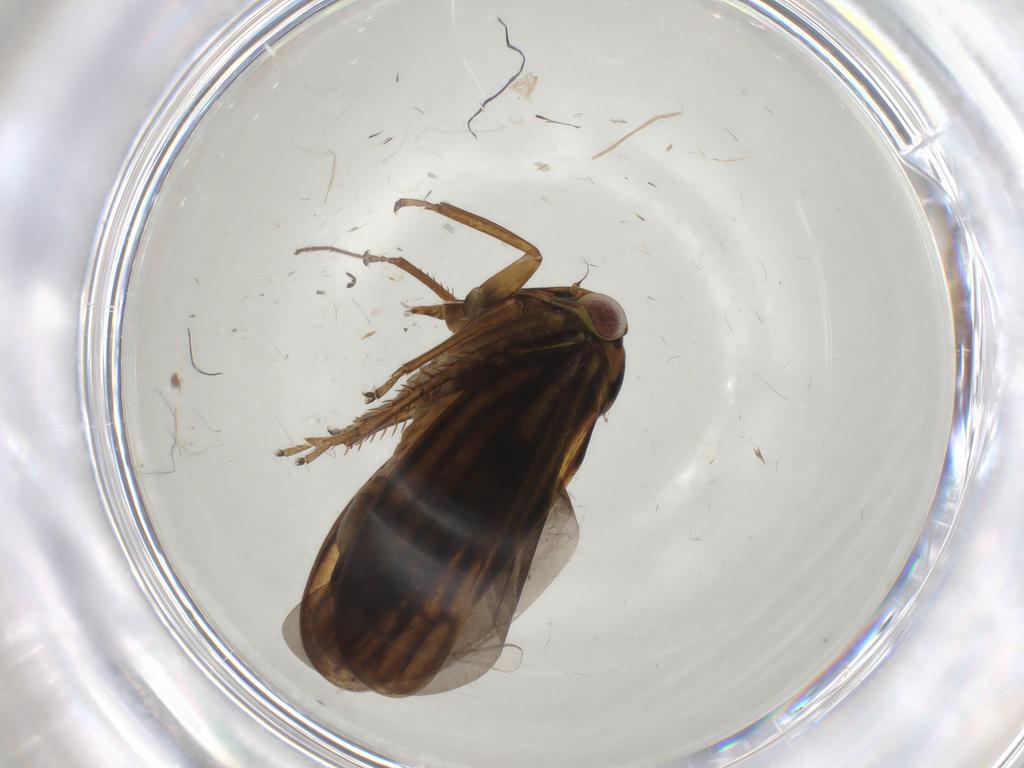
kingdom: Animalia
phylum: Arthropoda
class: Insecta
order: Hemiptera
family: Cicadellidae
